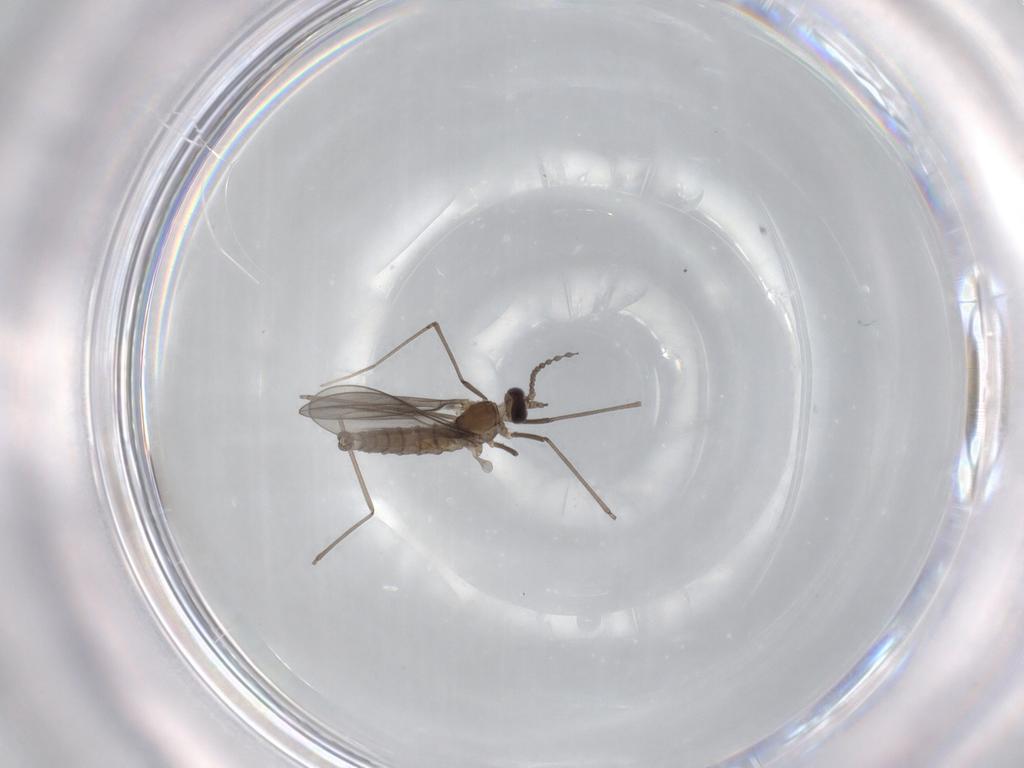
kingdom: Animalia
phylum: Arthropoda
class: Insecta
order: Diptera
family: Cecidomyiidae
